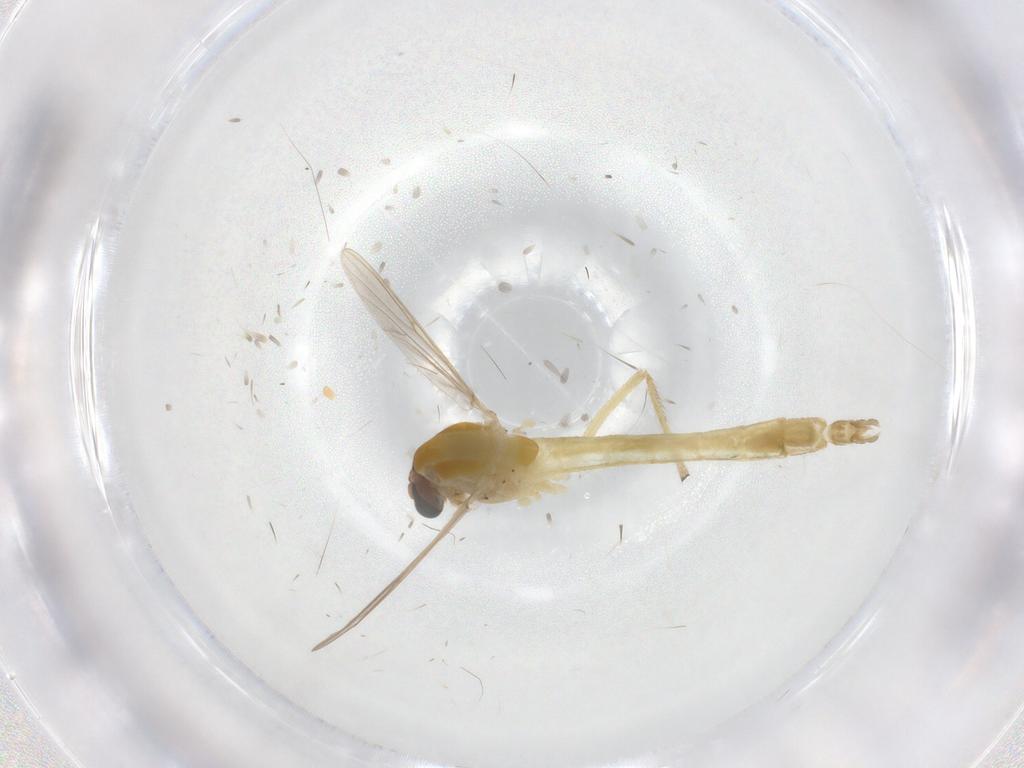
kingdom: Animalia
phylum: Arthropoda
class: Insecta
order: Diptera
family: Chironomidae
